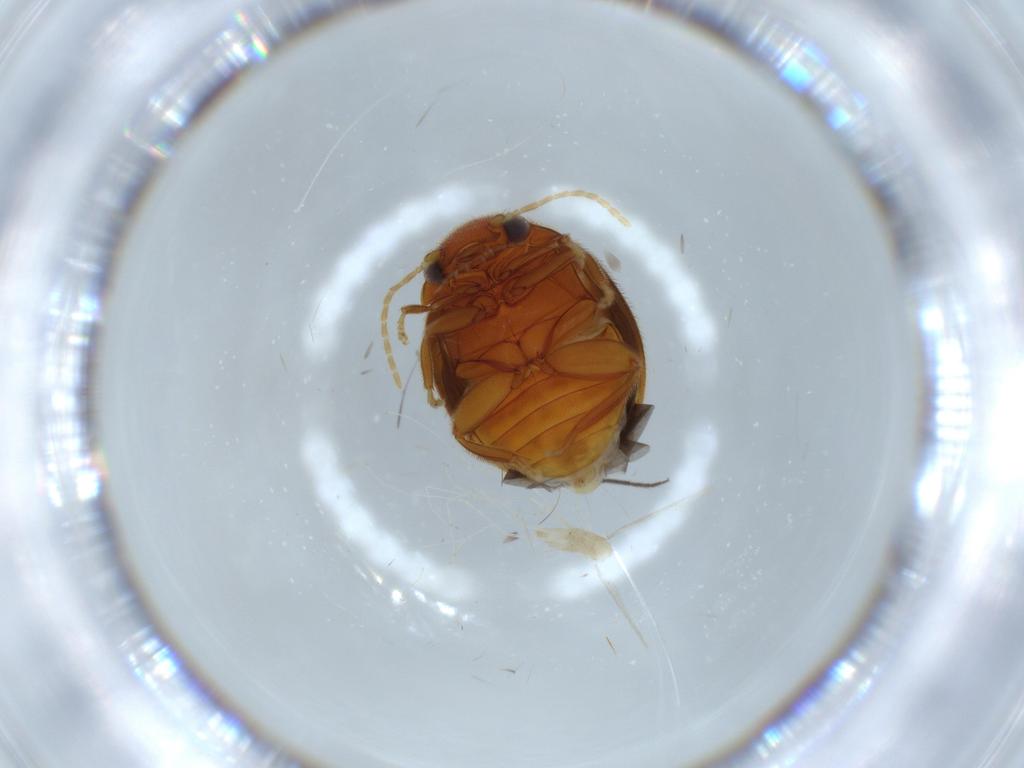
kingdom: Animalia
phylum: Arthropoda
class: Insecta
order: Coleoptera
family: Scirtidae
